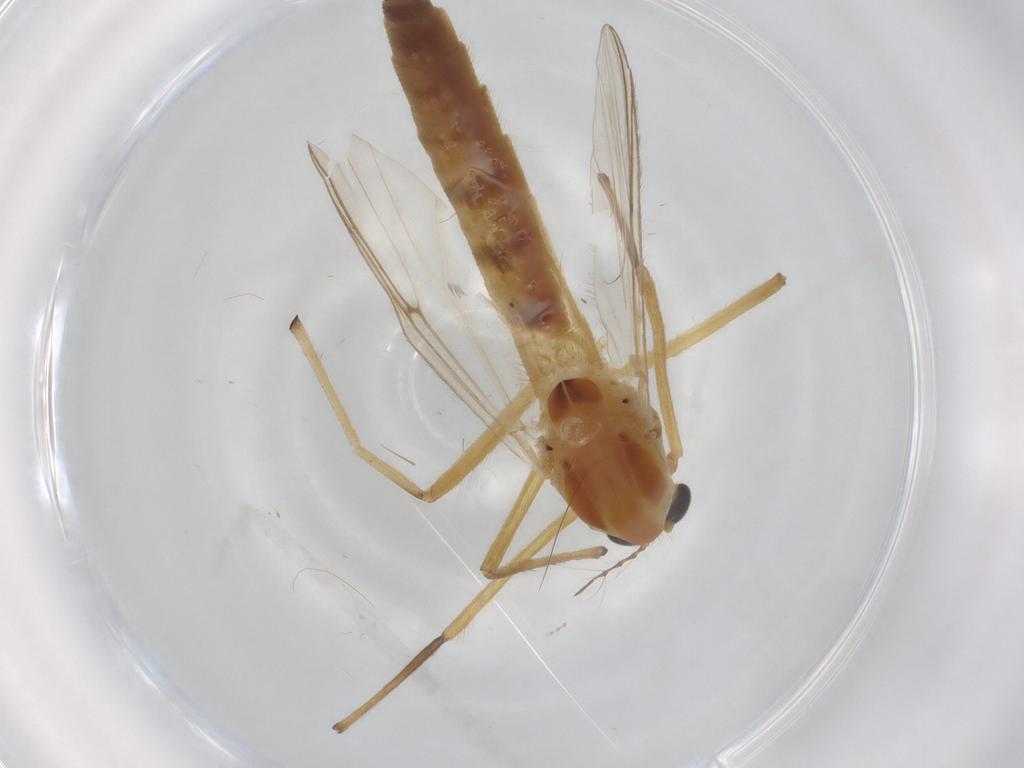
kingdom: Animalia
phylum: Arthropoda
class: Insecta
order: Diptera
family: Chironomidae
